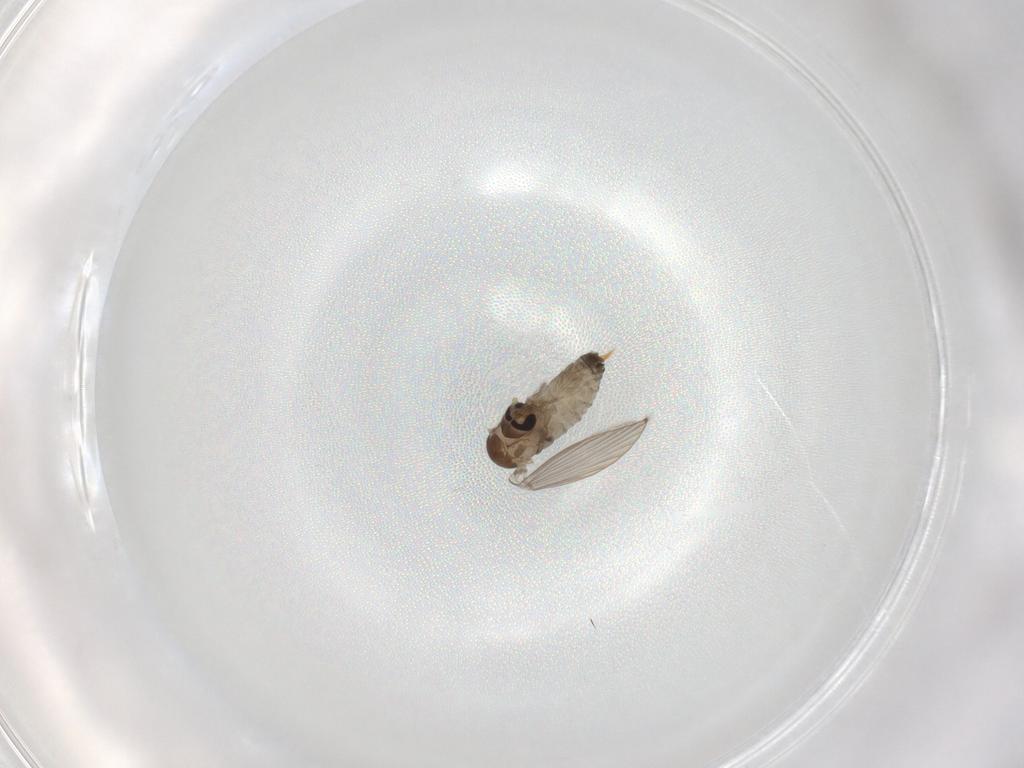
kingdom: Animalia
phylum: Arthropoda
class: Insecta
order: Diptera
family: Psychodidae
